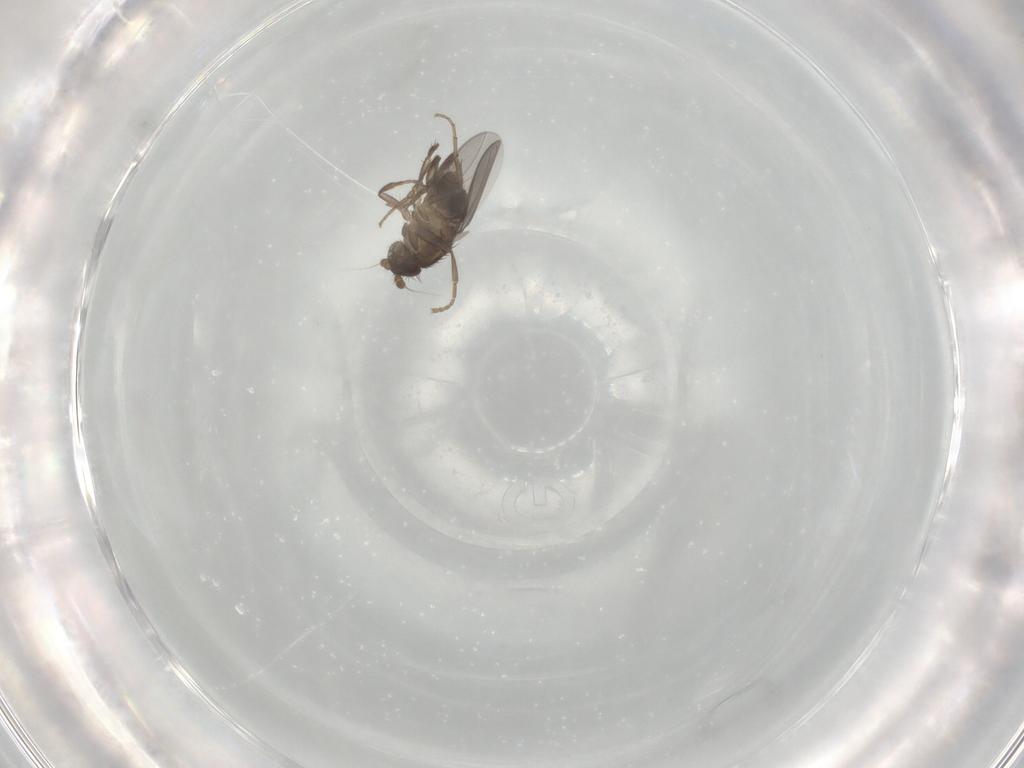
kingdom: Animalia
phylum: Arthropoda
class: Insecta
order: Diptera
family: Sphaeroceridae
